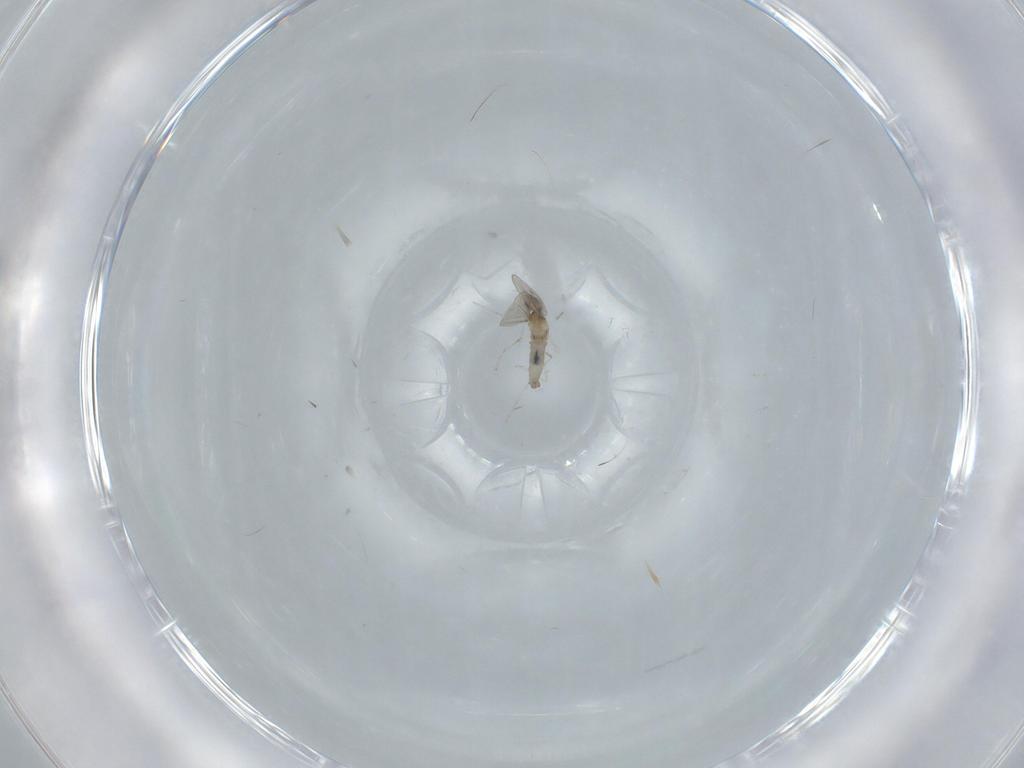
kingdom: Animalia
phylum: Arthropoda
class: Insecta
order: Diptera
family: Cecidomyiidae
